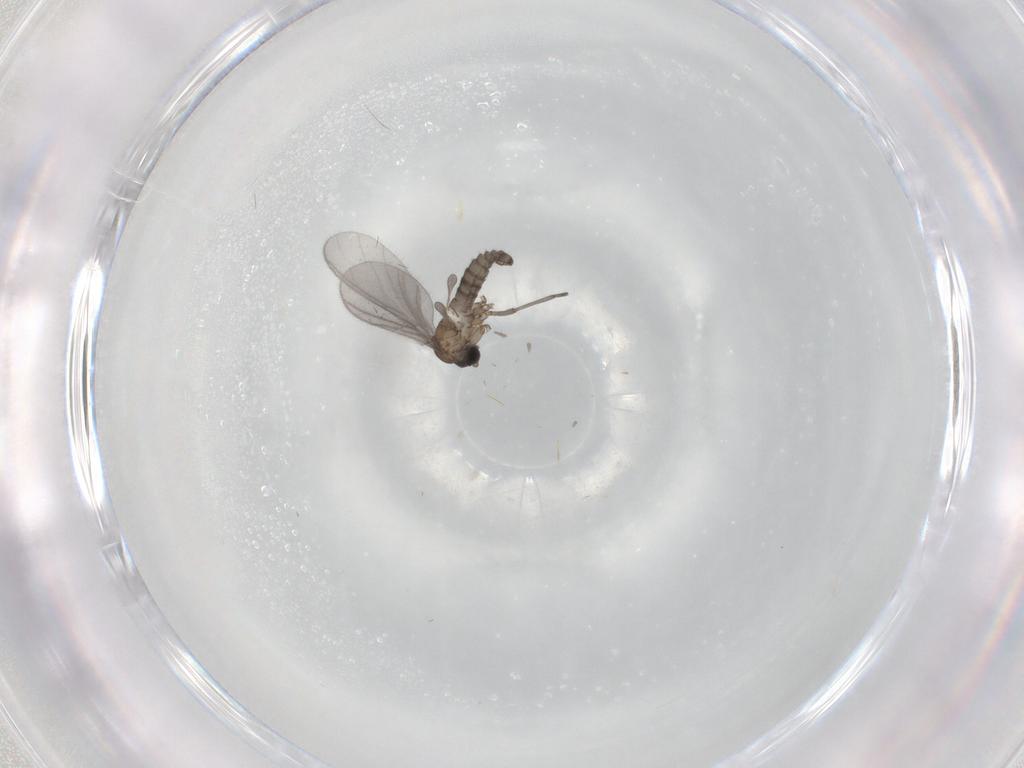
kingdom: Animalia
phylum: Arthropoda
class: Insecta
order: Diptera
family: Sciaridae
